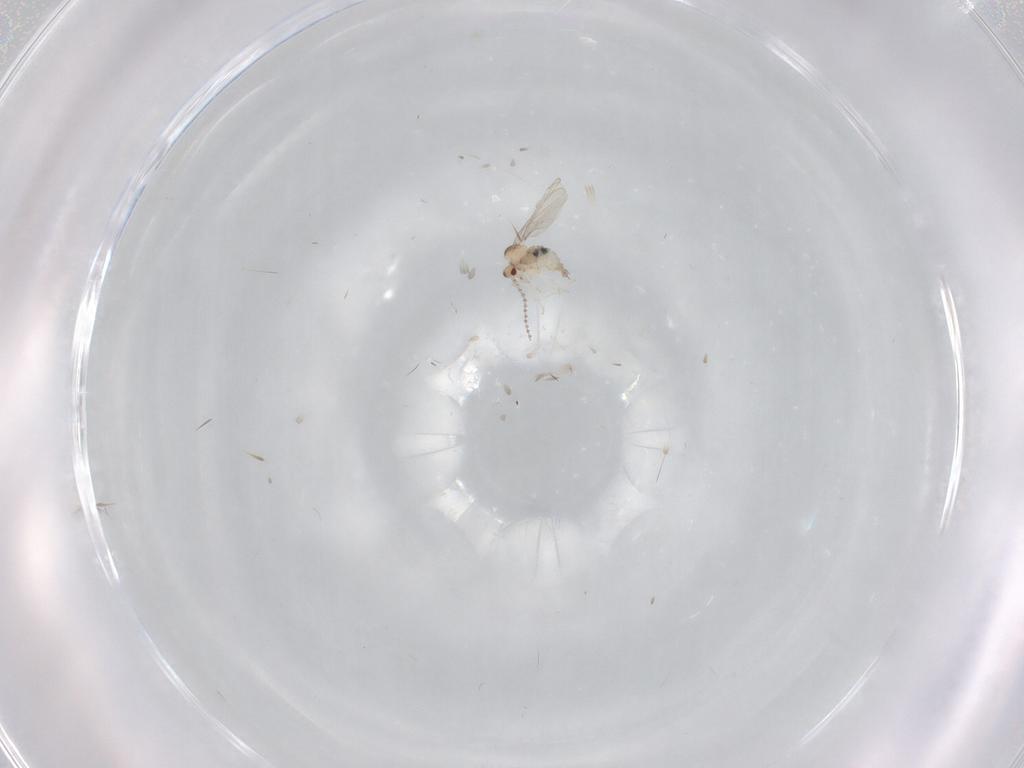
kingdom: Animalia
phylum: Arthropoda
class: Insecta
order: Diptera
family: Cecidomyiidae
